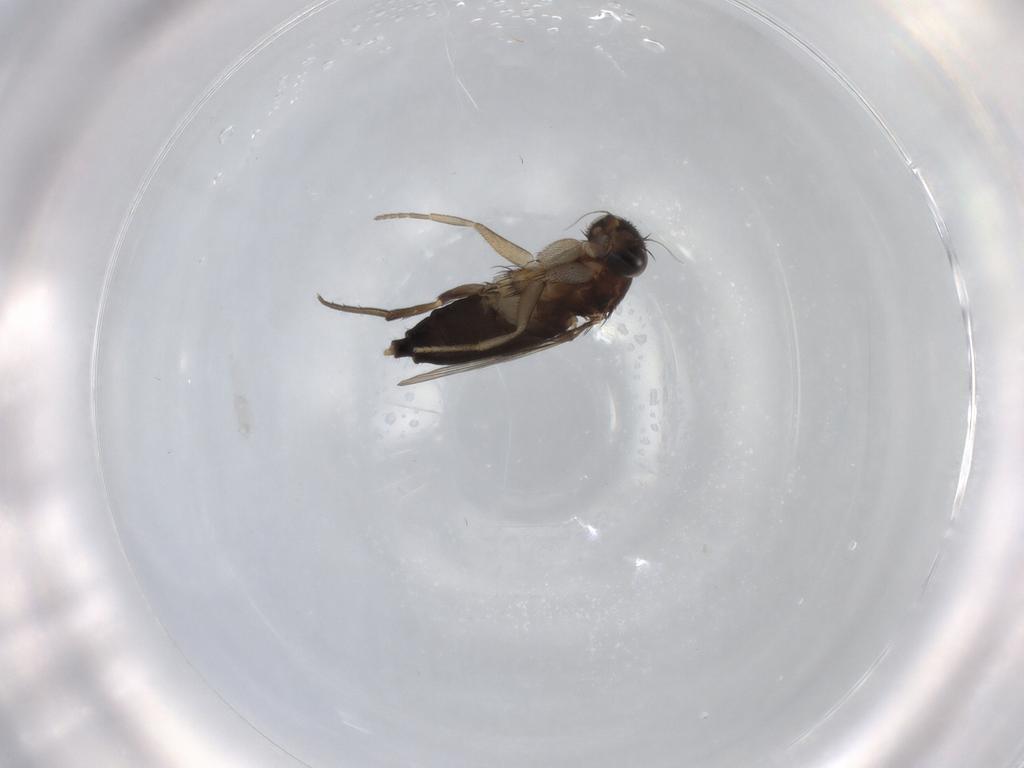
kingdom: Animalia
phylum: Arthropoda
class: Insecta
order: Diptera
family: Phoridae
